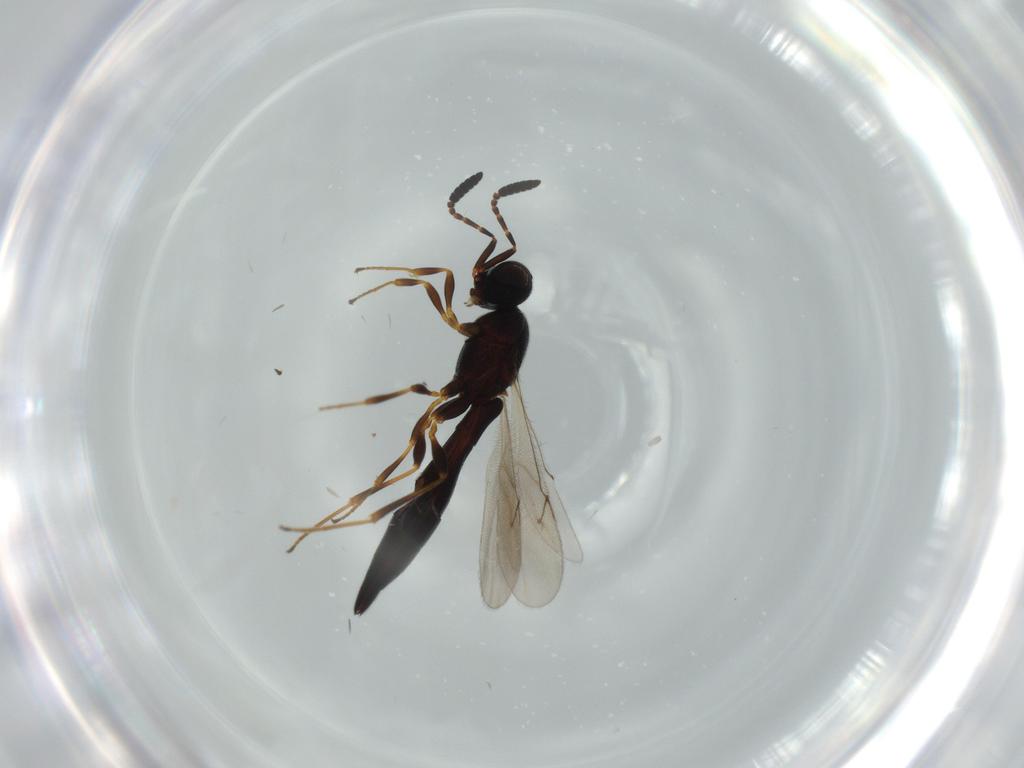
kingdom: Animalia
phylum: Arthropoda
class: Insecta
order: Hymenoptera
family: Scelionidae
